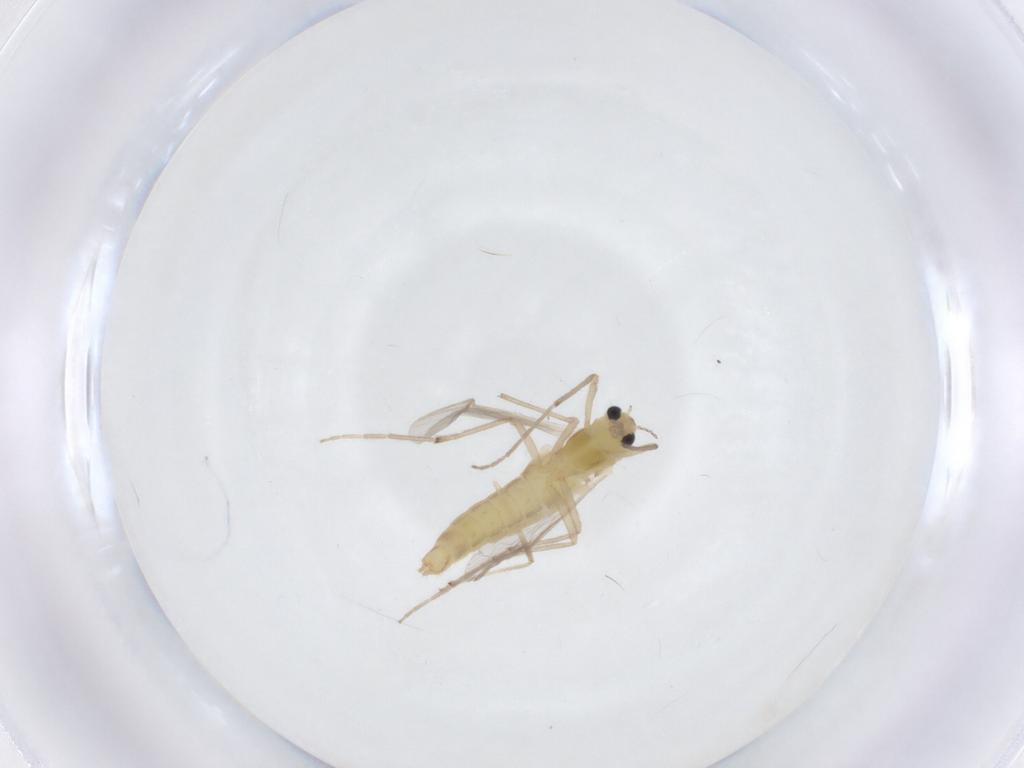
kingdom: Animalia
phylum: Arthropoda
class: Insecta
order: Diptera
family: Chironomidae
